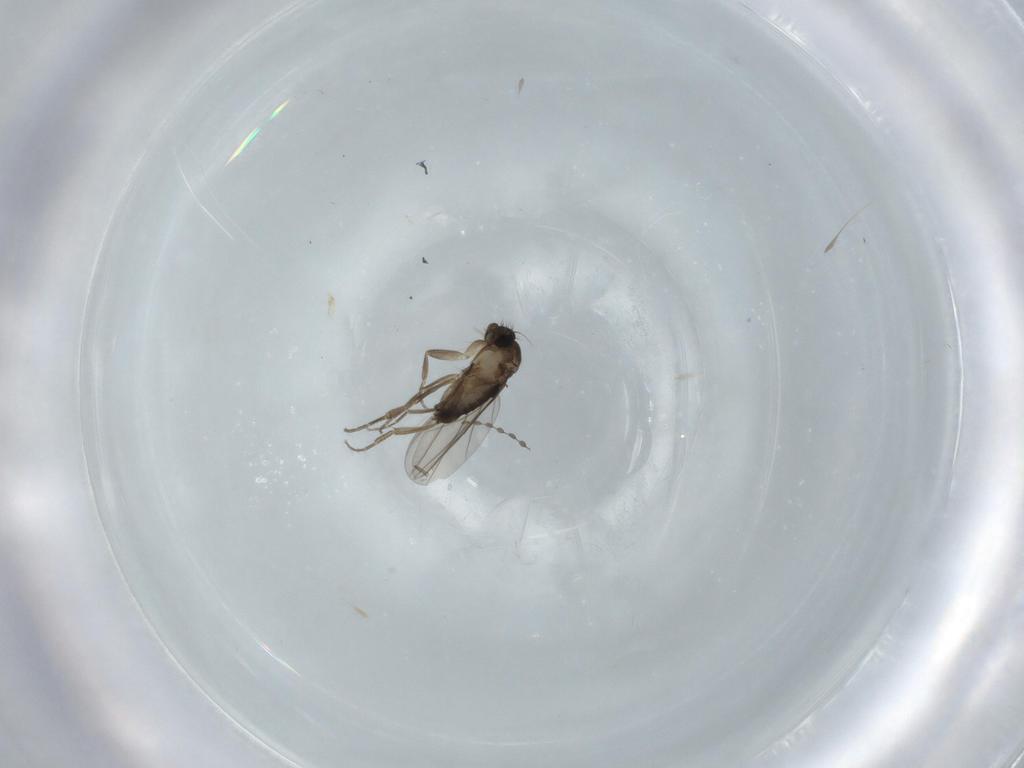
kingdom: Animalia
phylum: Arthropoda
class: Insecta
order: Diptera
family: Phoridae
